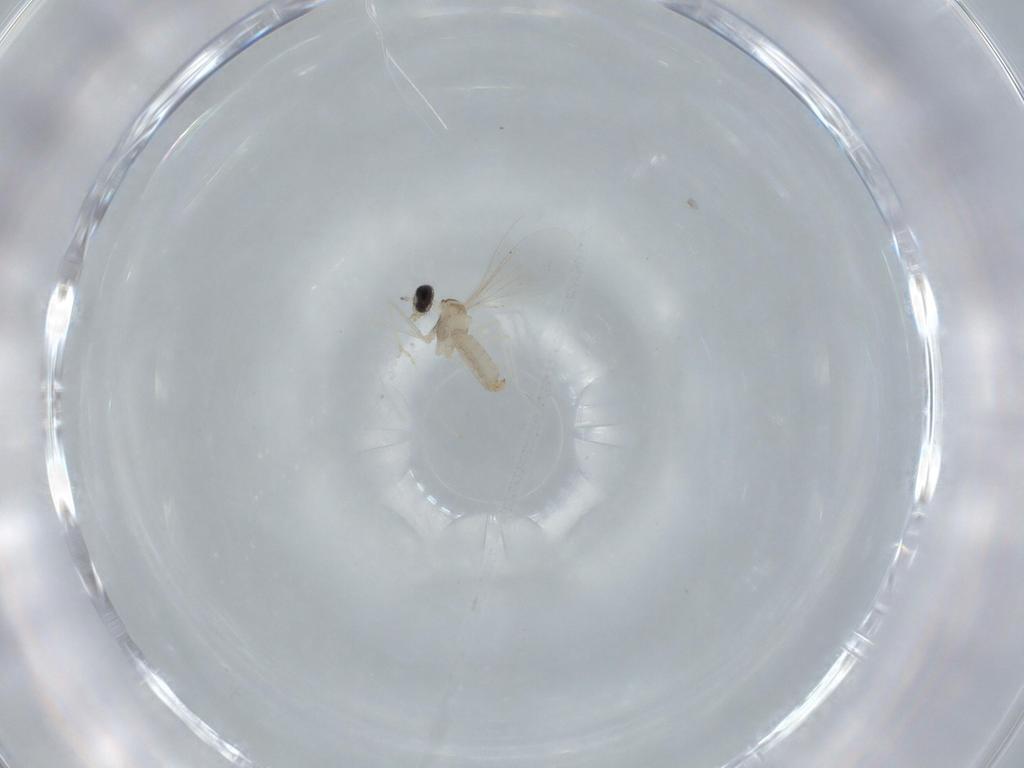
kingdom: Animalia
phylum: Arthropoda
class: Insecta
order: Diptera
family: Cecidomyiidae
